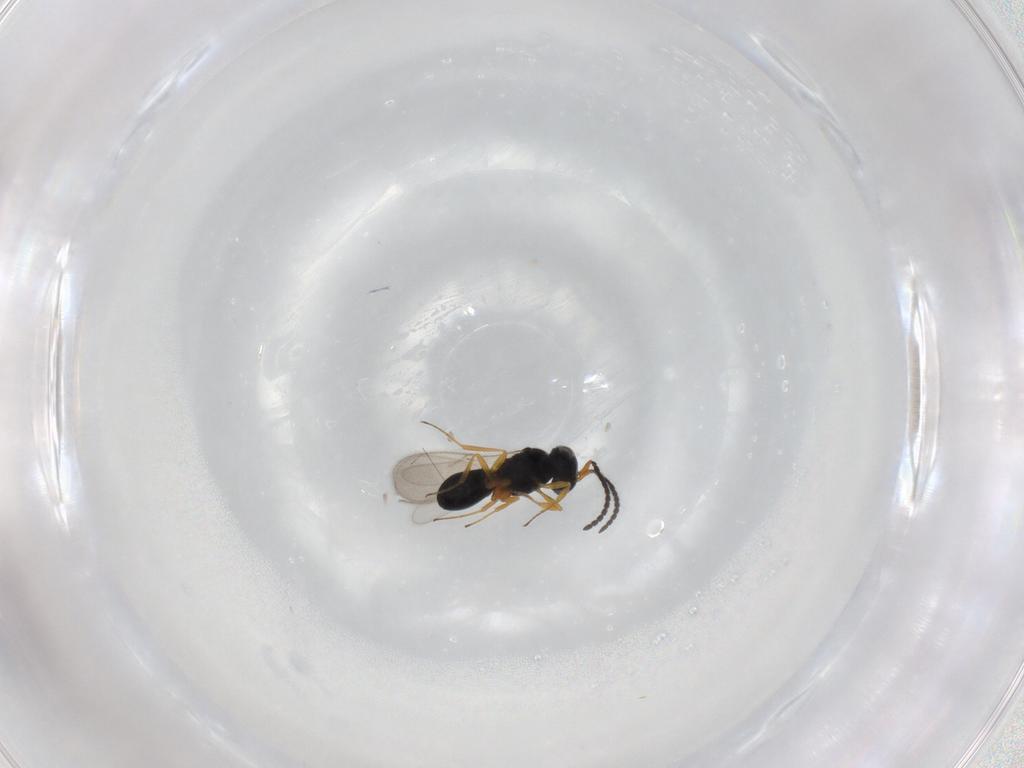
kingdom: Animalia
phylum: Arthropoda
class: Insecta
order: Hymenoptera
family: Scelionidae
